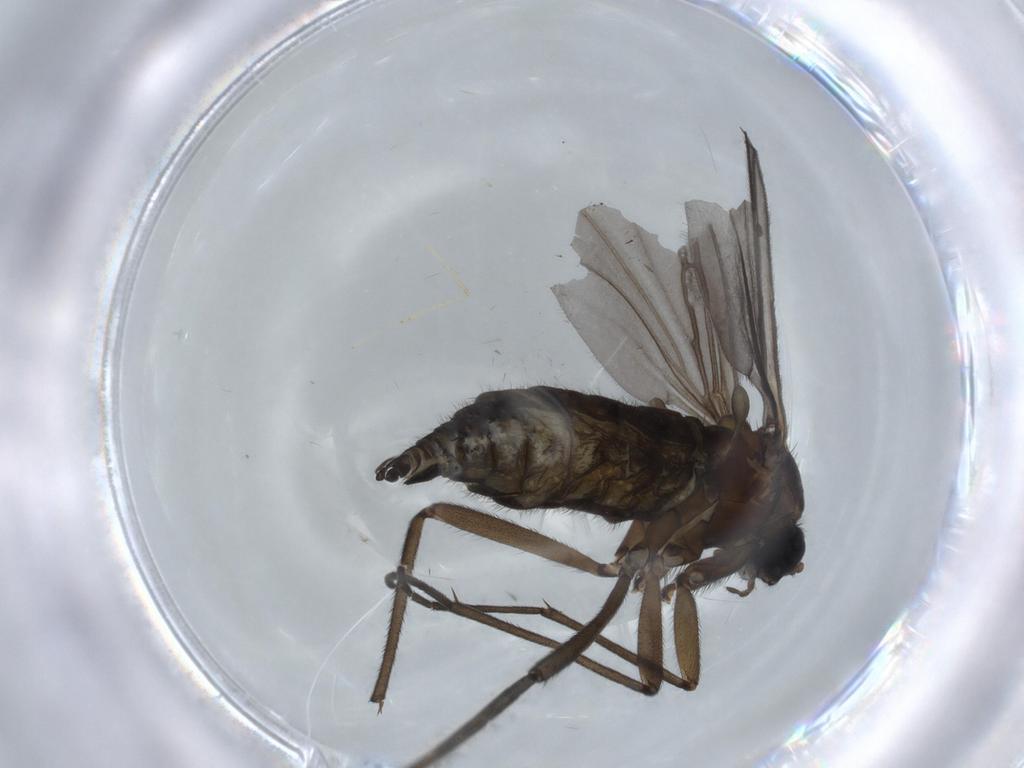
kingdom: Animalia
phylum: Arthropoda
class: Insecta
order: Diptera
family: Sciaridae
